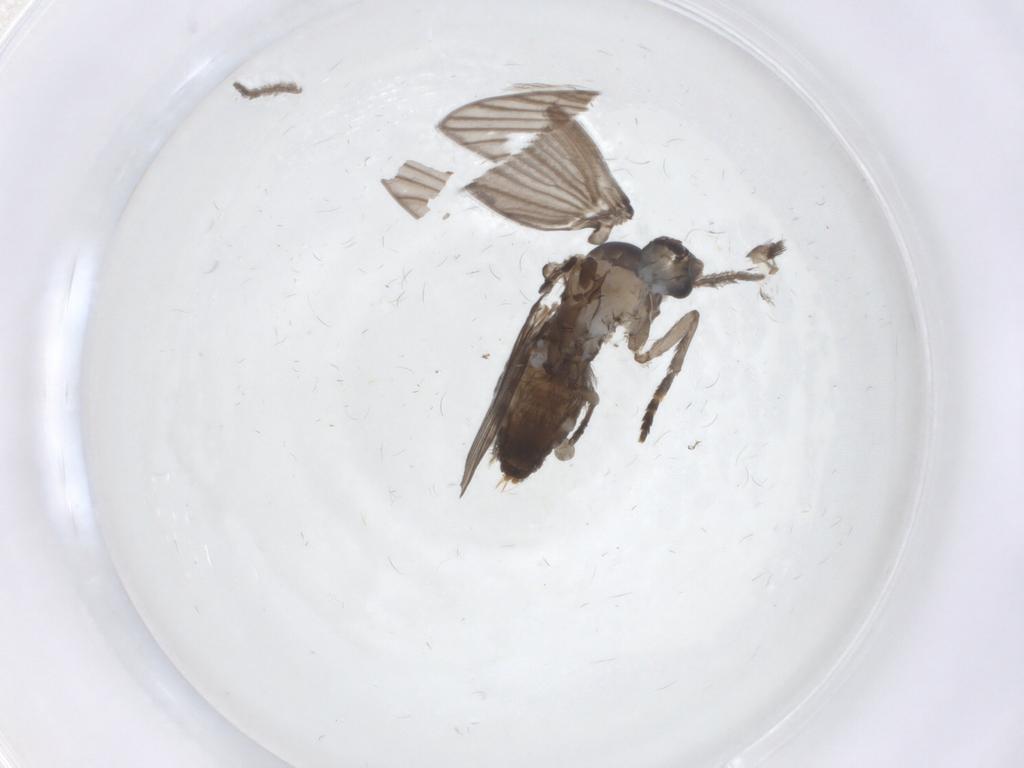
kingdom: Animalia
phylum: Arthropoda
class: Insecta
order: Diptera
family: Psychodidae
